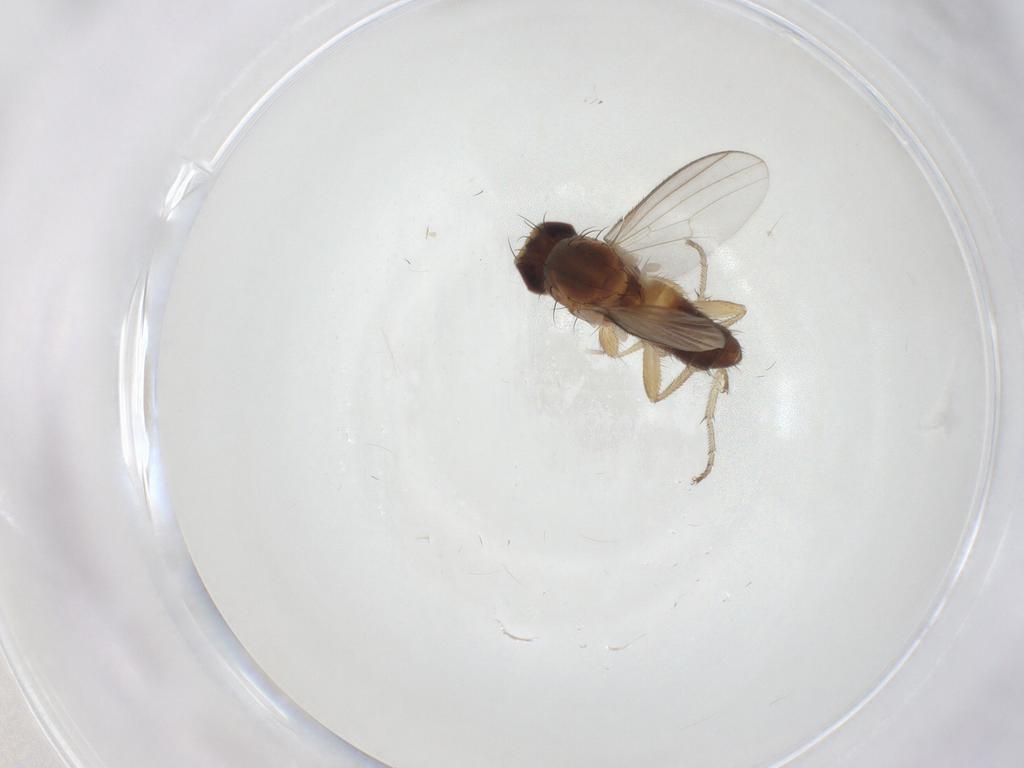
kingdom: Animalia
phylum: Arthropoda
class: Insecta
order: Diptera
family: Heleomyzidae
